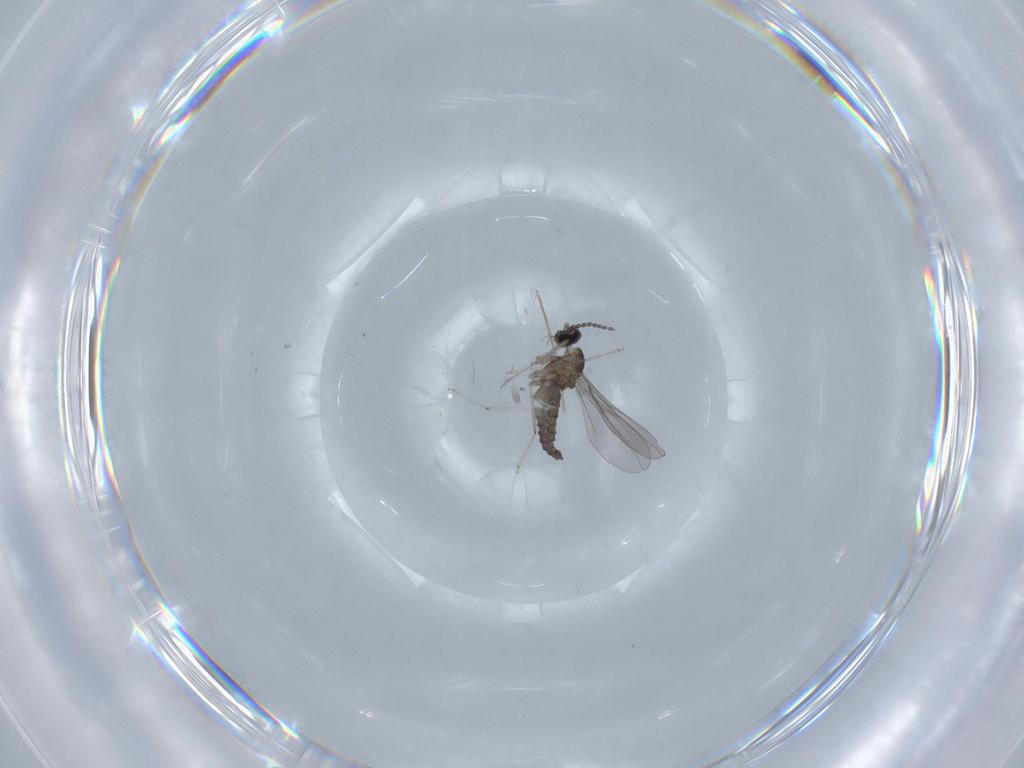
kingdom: Animalia
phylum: Arthropoda
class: Insecta
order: Diptera
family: Cecidomyiidae
